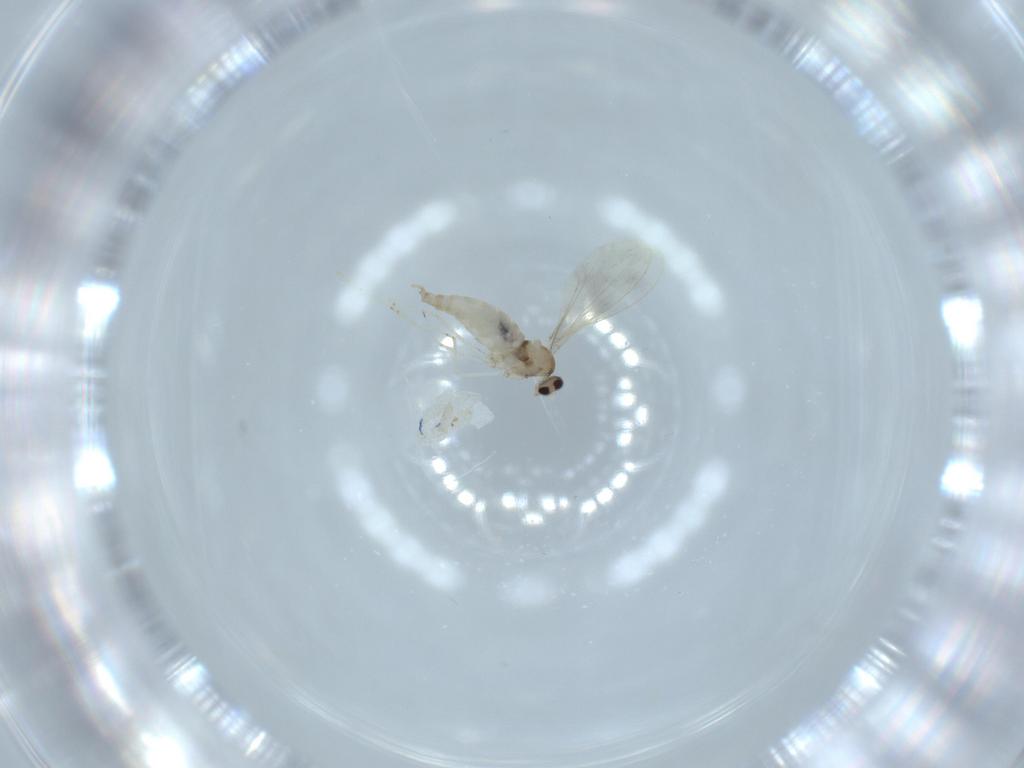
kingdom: Animalia
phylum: Arthropoda
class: Insecta
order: Diptera
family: Cecidomyiidae
